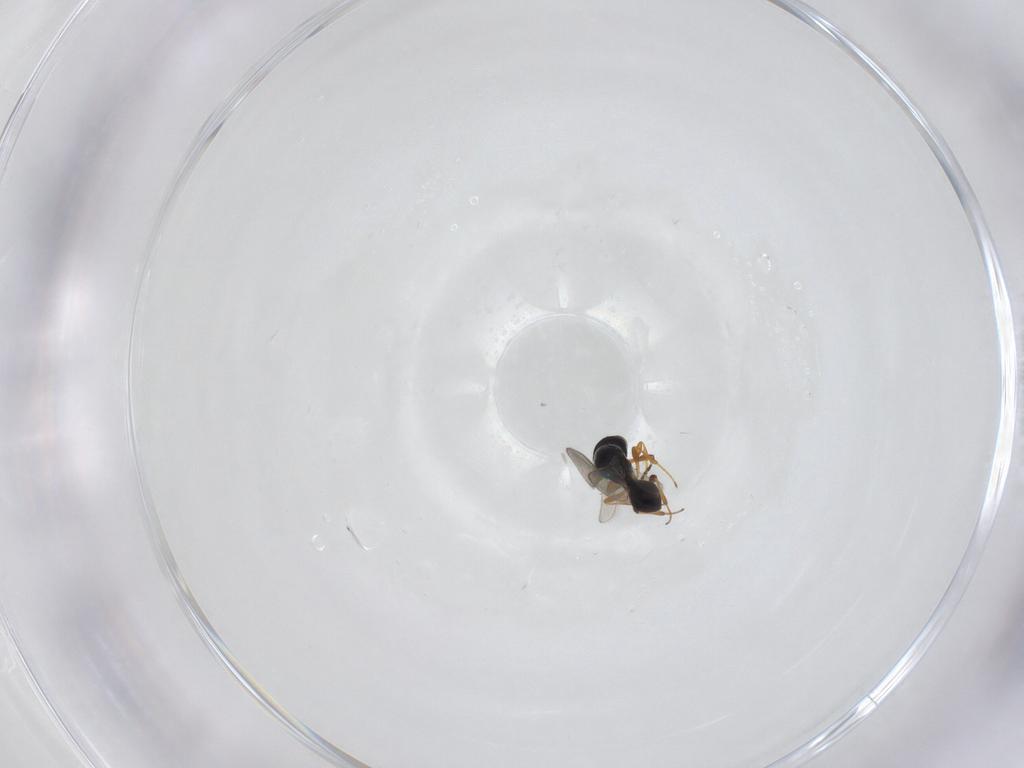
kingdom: Animalia
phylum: Arthropoda
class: Insecta
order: Hymenoptera
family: Platygastridae
